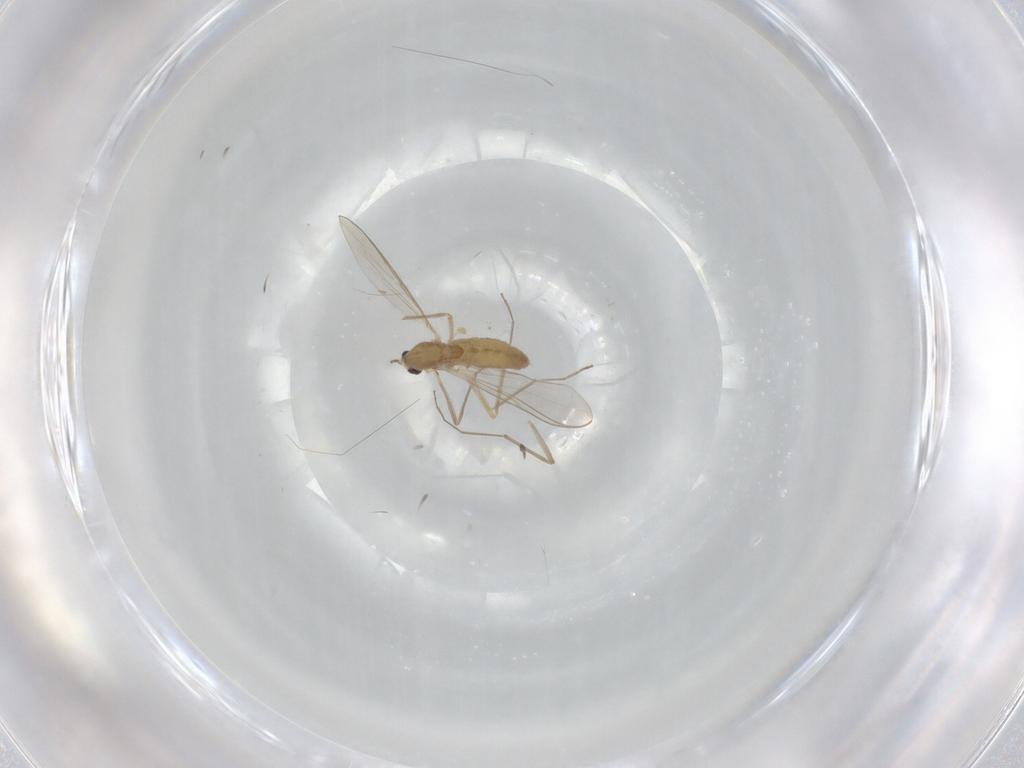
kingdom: Animalia
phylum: Arthropoda
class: Insecta
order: Diptera
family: Chironomidae
